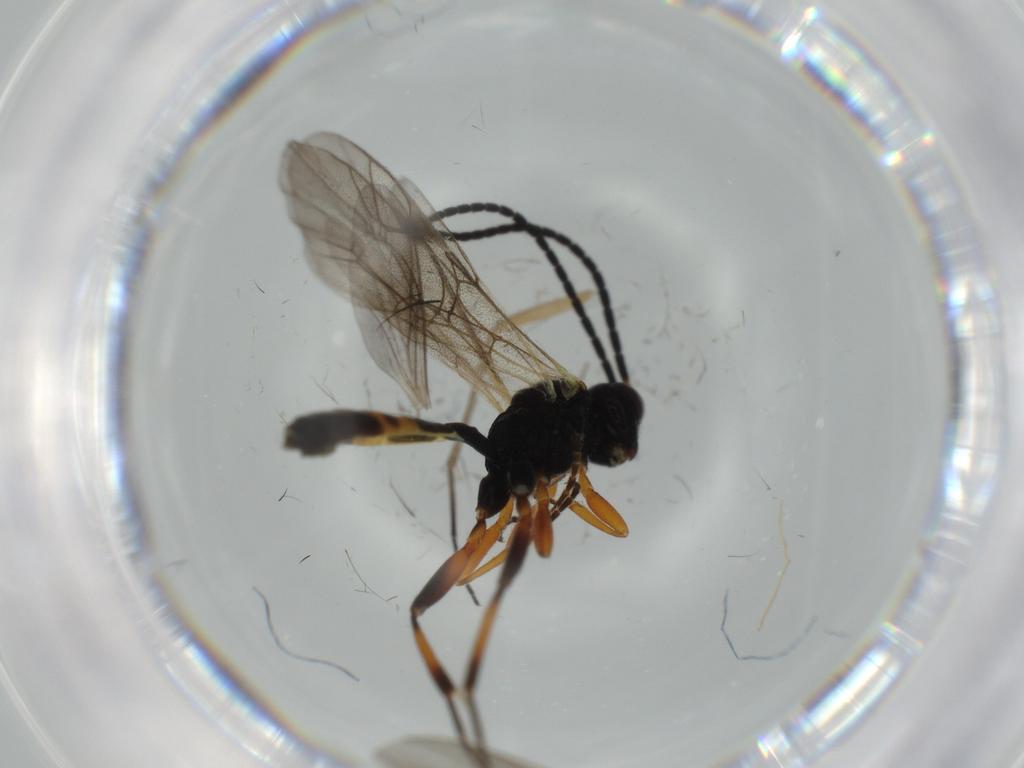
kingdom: Animalia
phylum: Arthropoda
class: Insecta
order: Hymenoptera
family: Ichneumonidae
